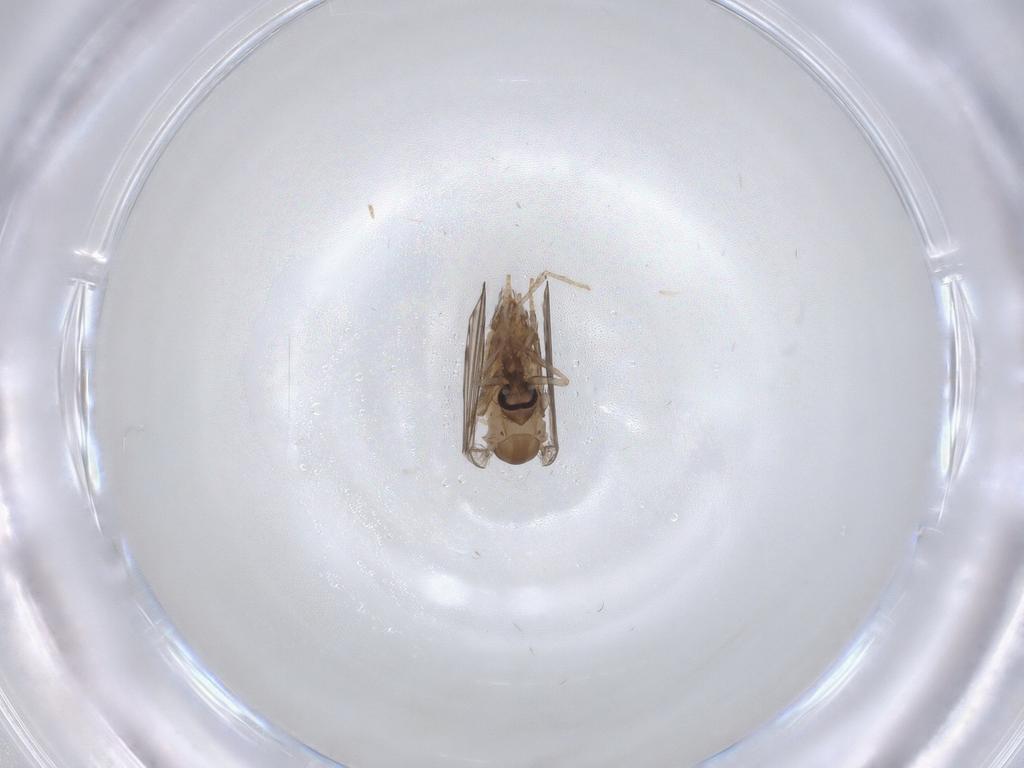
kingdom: Animalia
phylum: Arthropoda
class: Insecta
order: Diptera
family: Psychodidae
